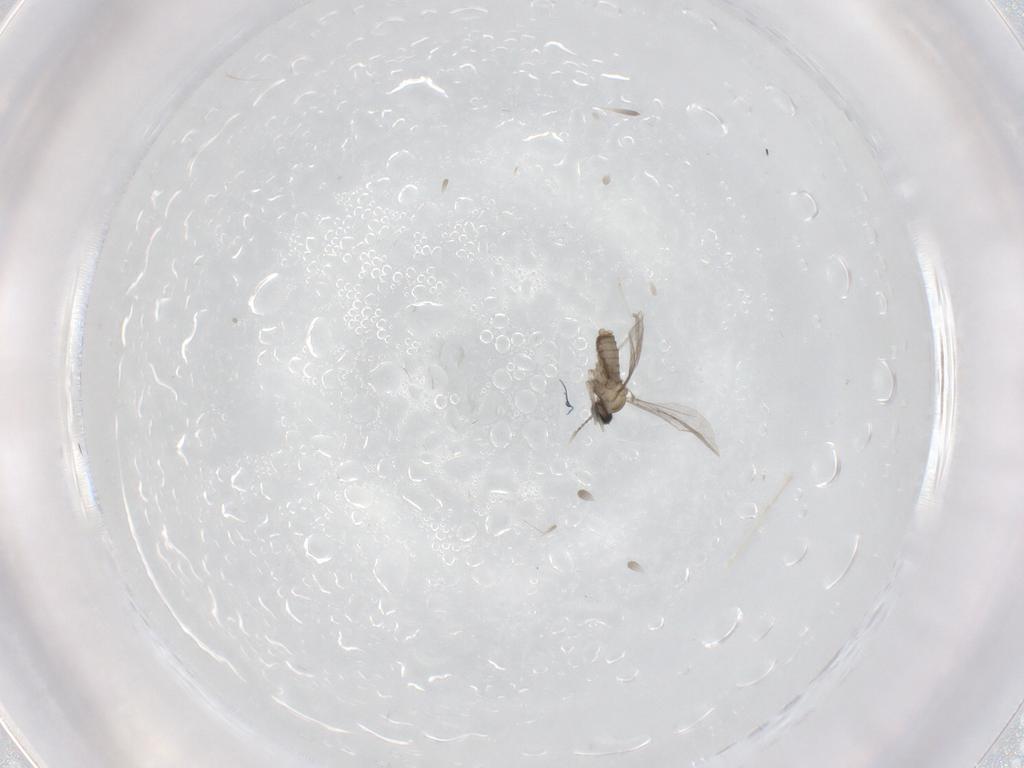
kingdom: Animalia
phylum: Arthropoda
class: Insecta
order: Diptera
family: Cecidomyiidae
